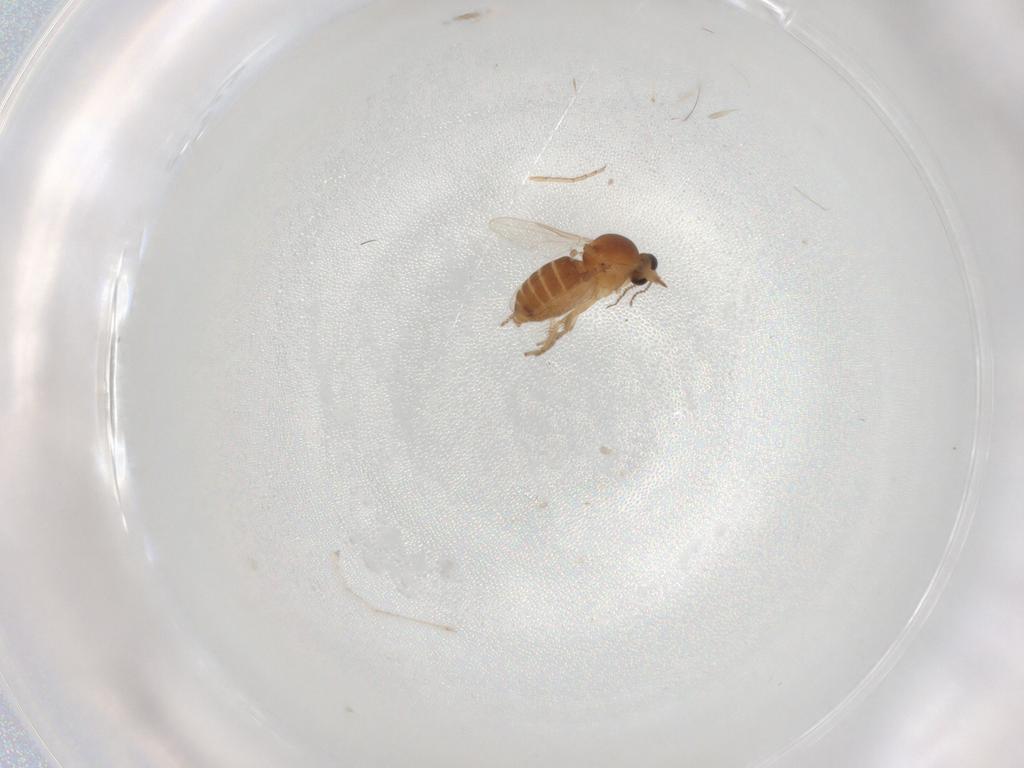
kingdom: Animalia
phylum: Arthropoda
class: Insecta
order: Diptera
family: Ceratopogonidae
